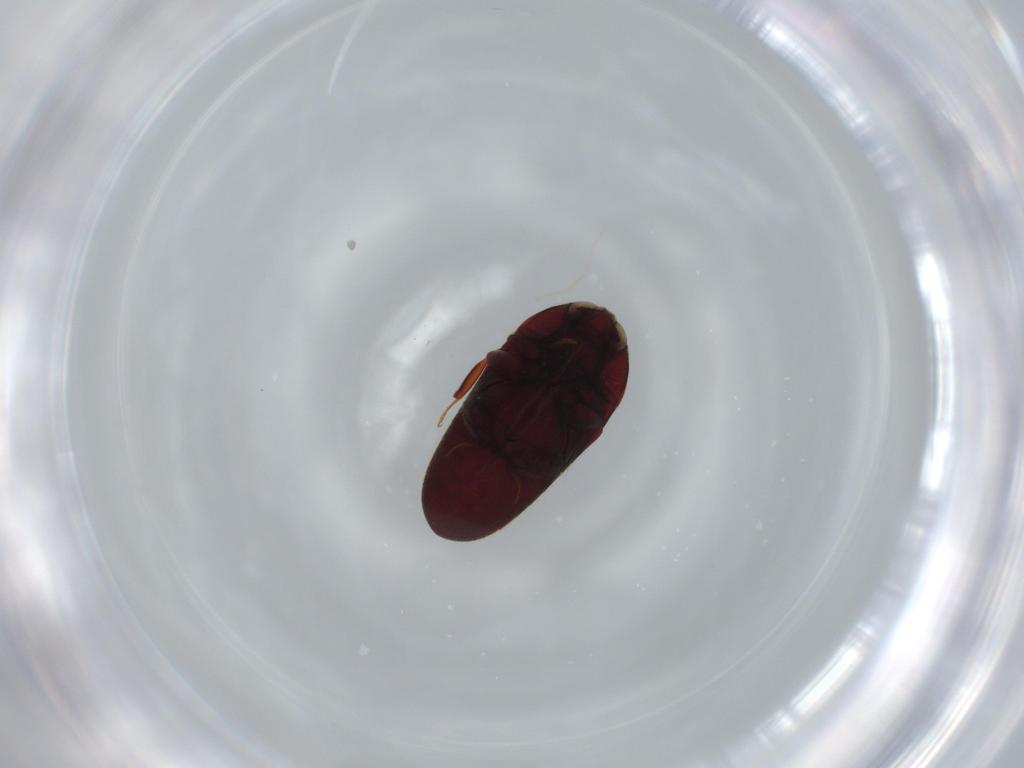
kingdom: Animalia
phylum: Arthropoda
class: Insecta
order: Coleoptera
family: Throscidae
